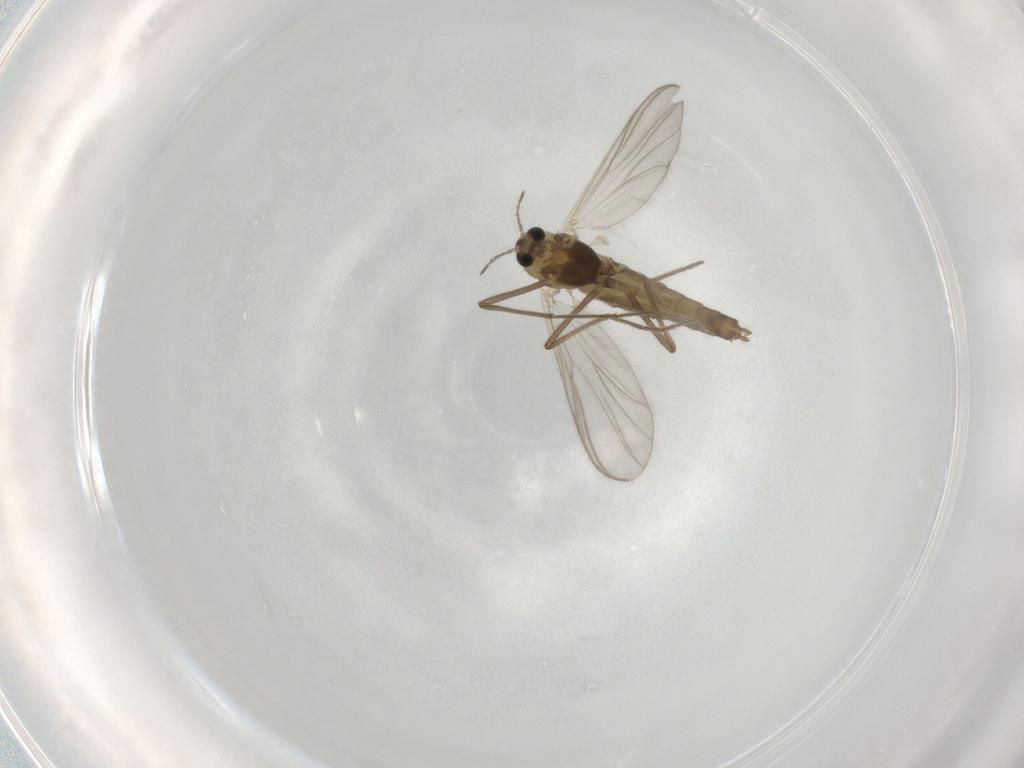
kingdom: Animalia
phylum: Arthropoda
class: Insecta
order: Diptera
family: Chironomidae
